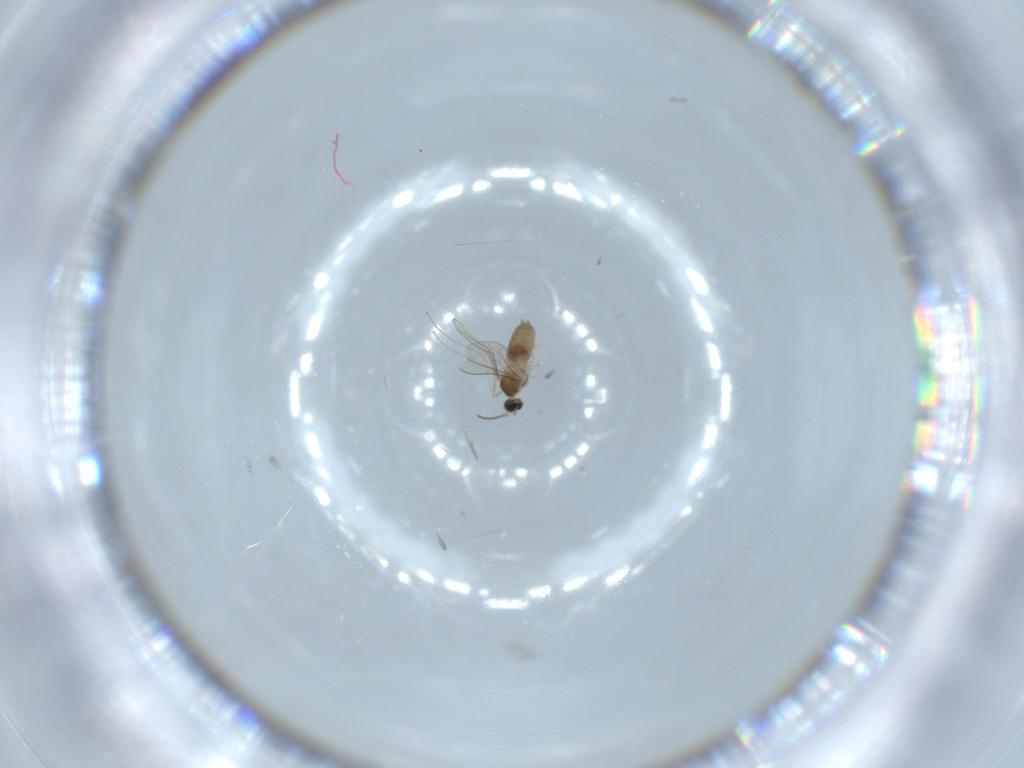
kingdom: Animalia
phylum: Arthropoda
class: Insecta
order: Diptera
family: Cecidomyiidae
